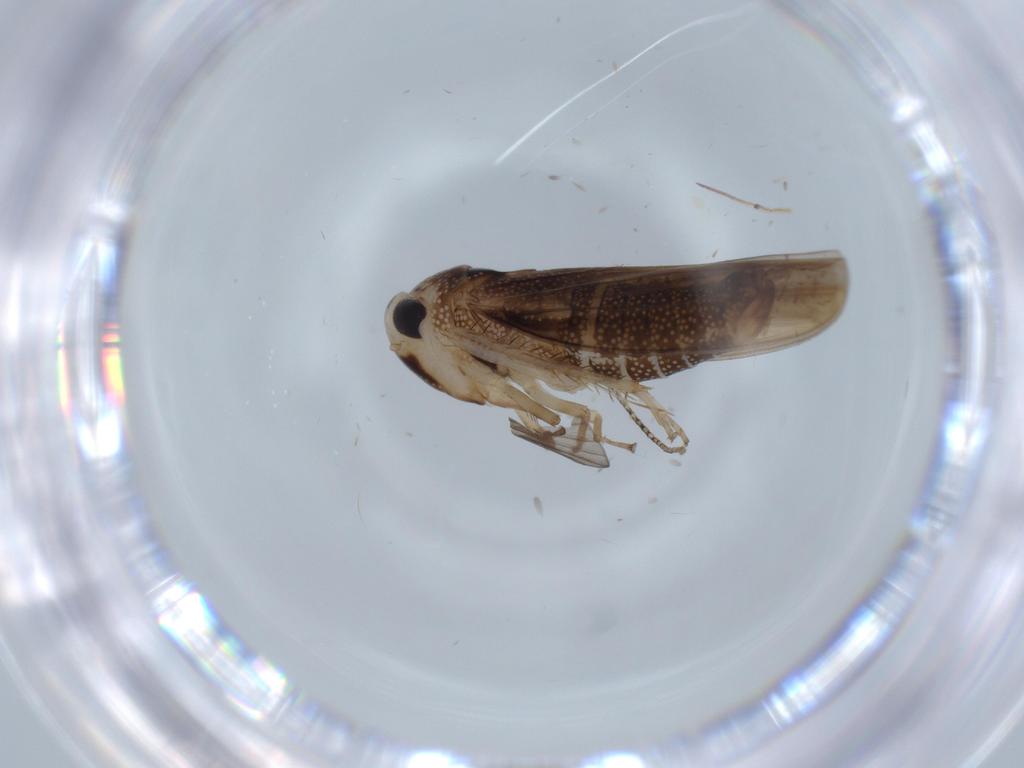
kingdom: Animalia
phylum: Arthropoda
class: Insecta
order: Hemiptera
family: Cicadellidae
